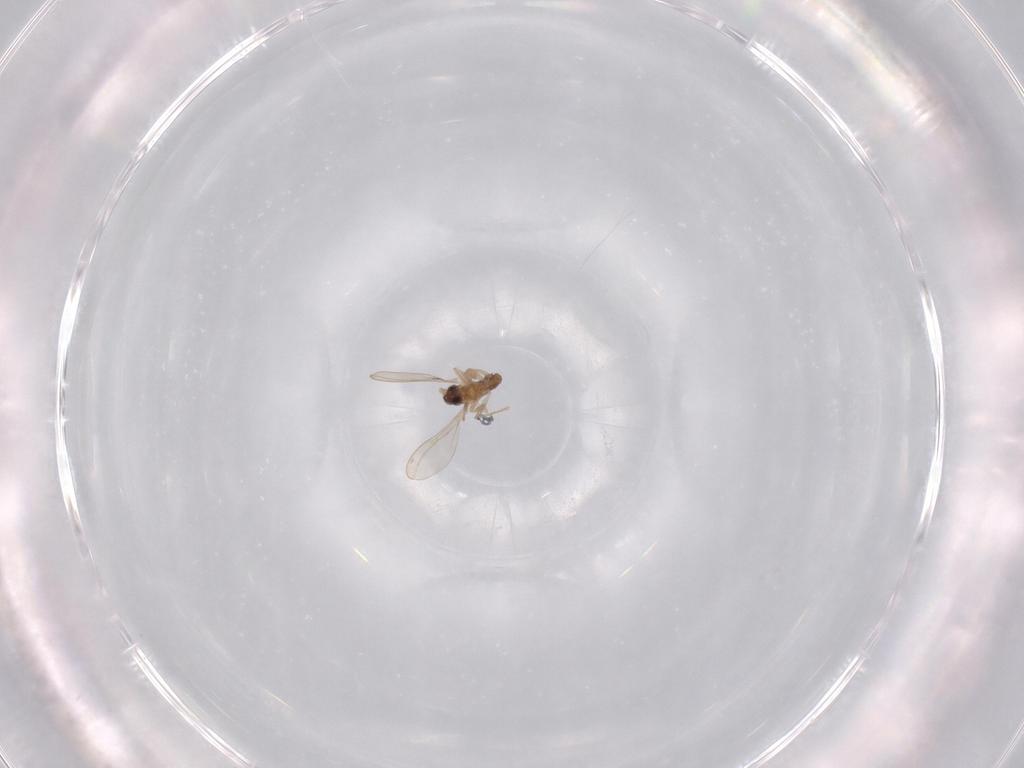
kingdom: Animalia
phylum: Arthropoda
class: Insecta
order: Diptera
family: Cecidomyiidae
